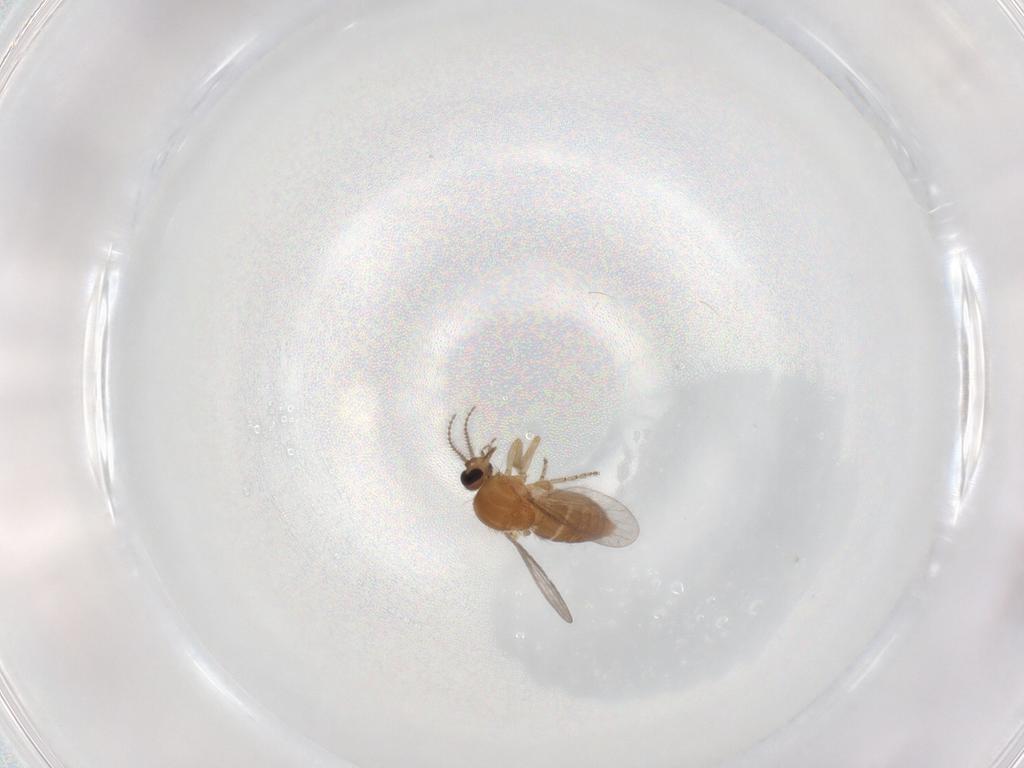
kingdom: Animalia
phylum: Arthropoda
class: Insecta
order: Diptera
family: Ceratopogonidae
